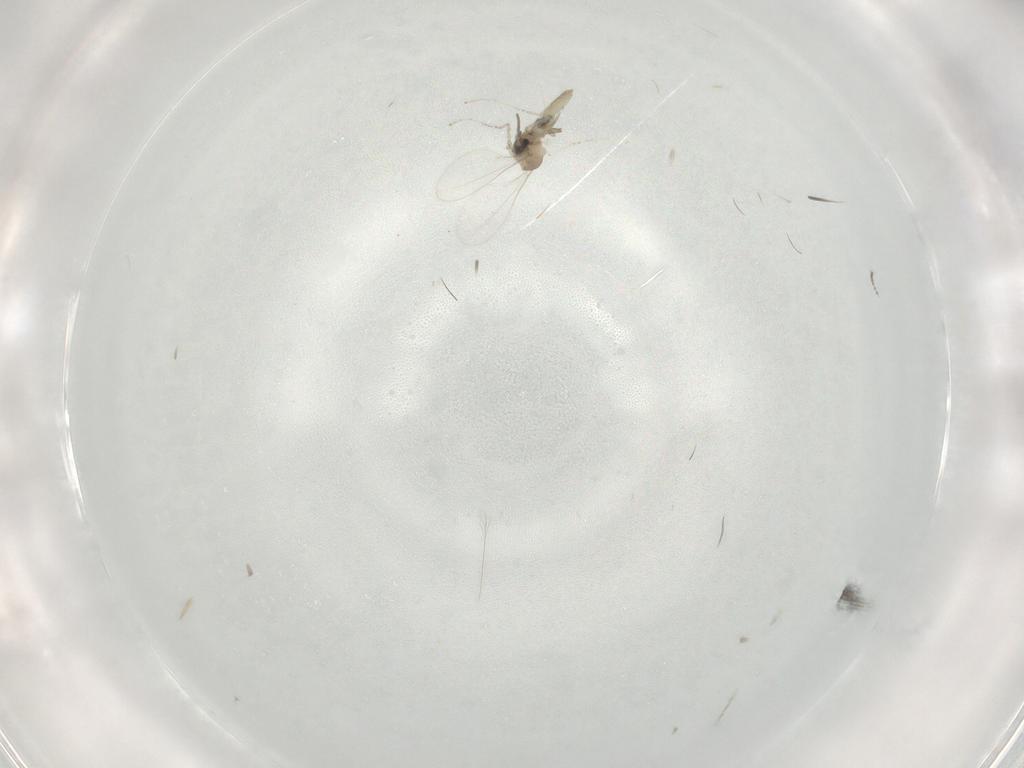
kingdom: Animalia
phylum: Arthropoda
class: Insecta
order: Diptera
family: Cecidomyiidae
